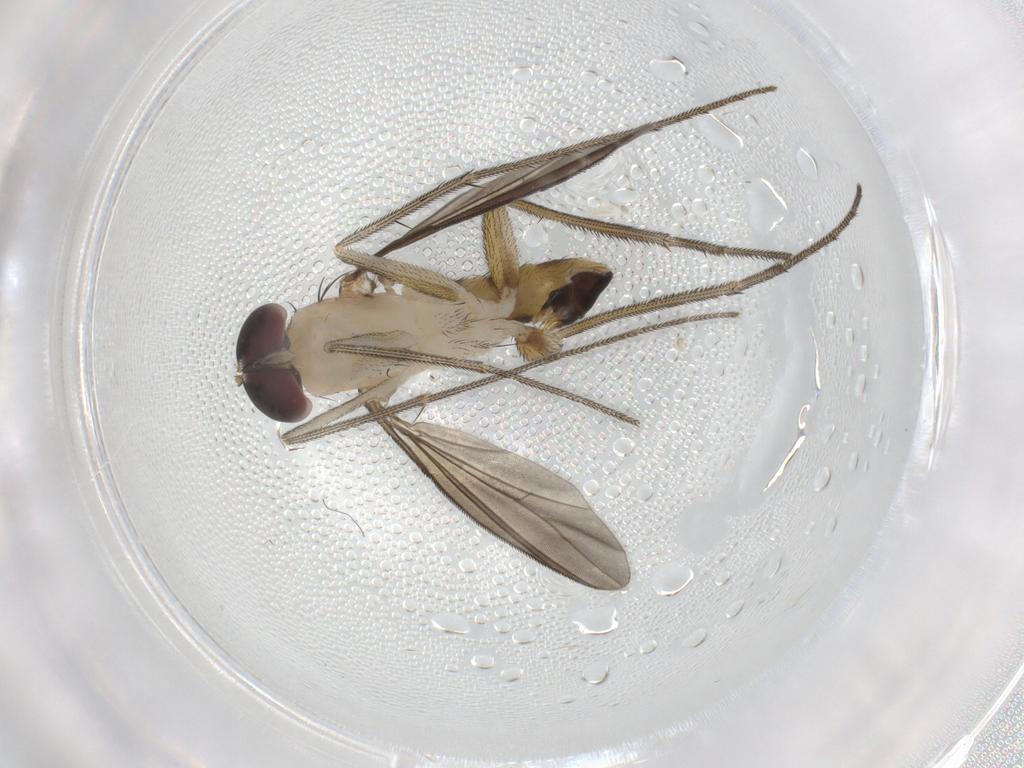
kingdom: Animalia
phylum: Arthropoda
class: Insecta
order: Diptera
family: Dolichopodidae
